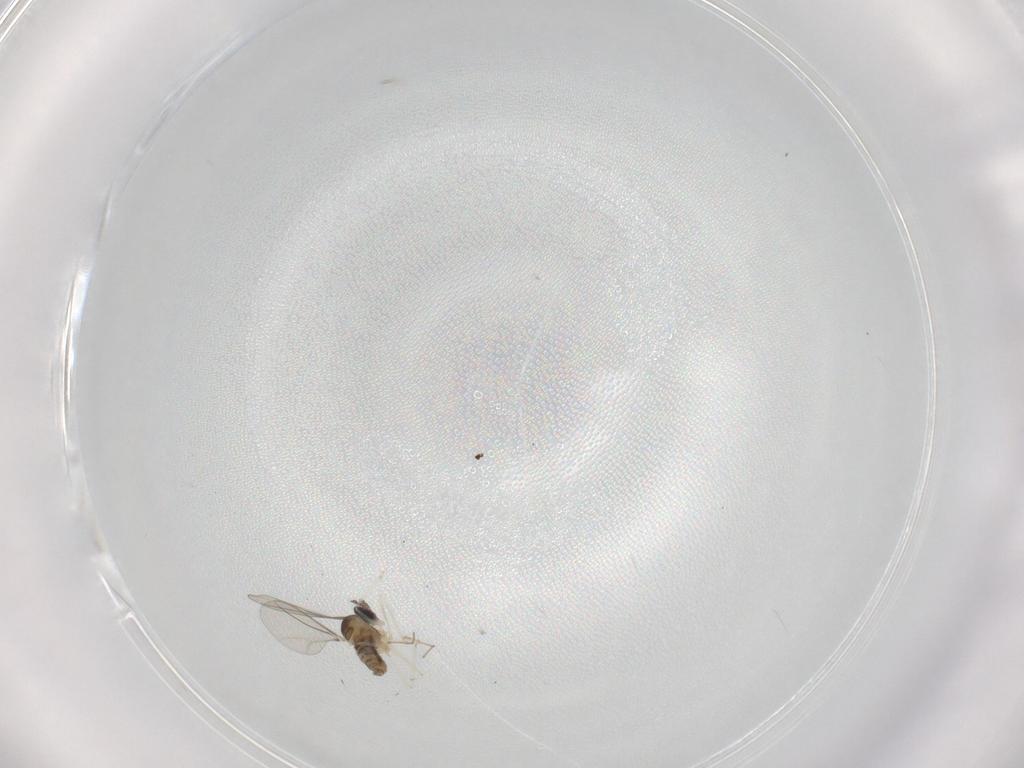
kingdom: Animalia
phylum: Arthropoda
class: Insecta
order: Diptera
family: Cecidomyiidae
